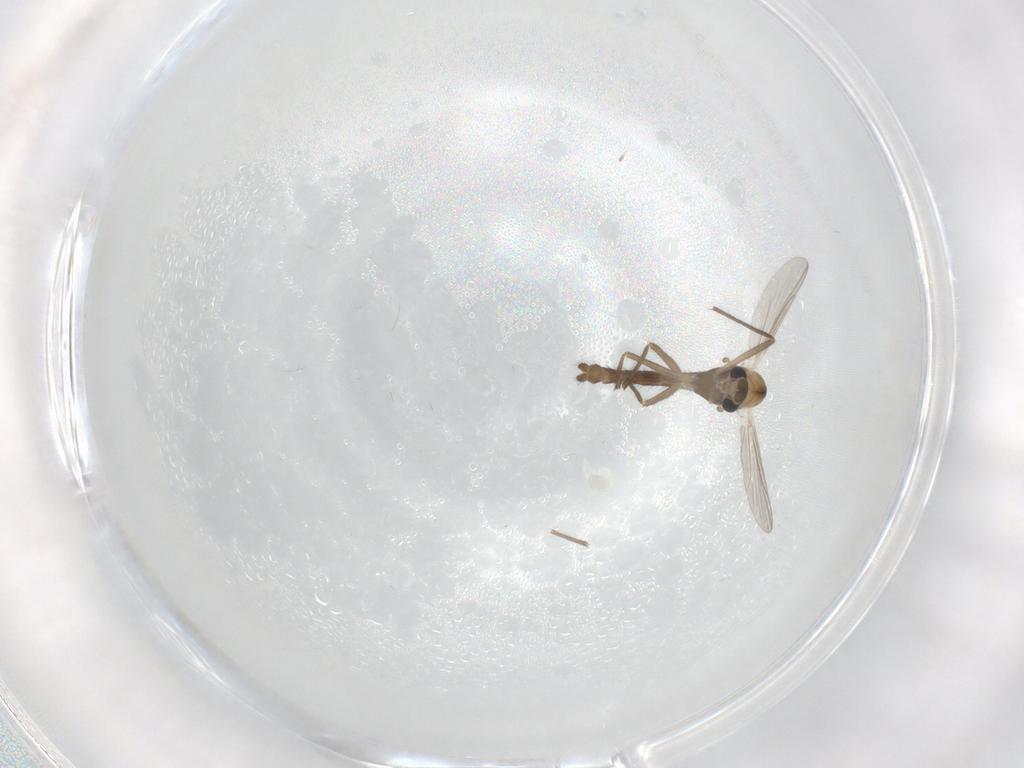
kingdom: Animalia
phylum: Arthropoda
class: Insecta
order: Diptera
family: Chironomidae
